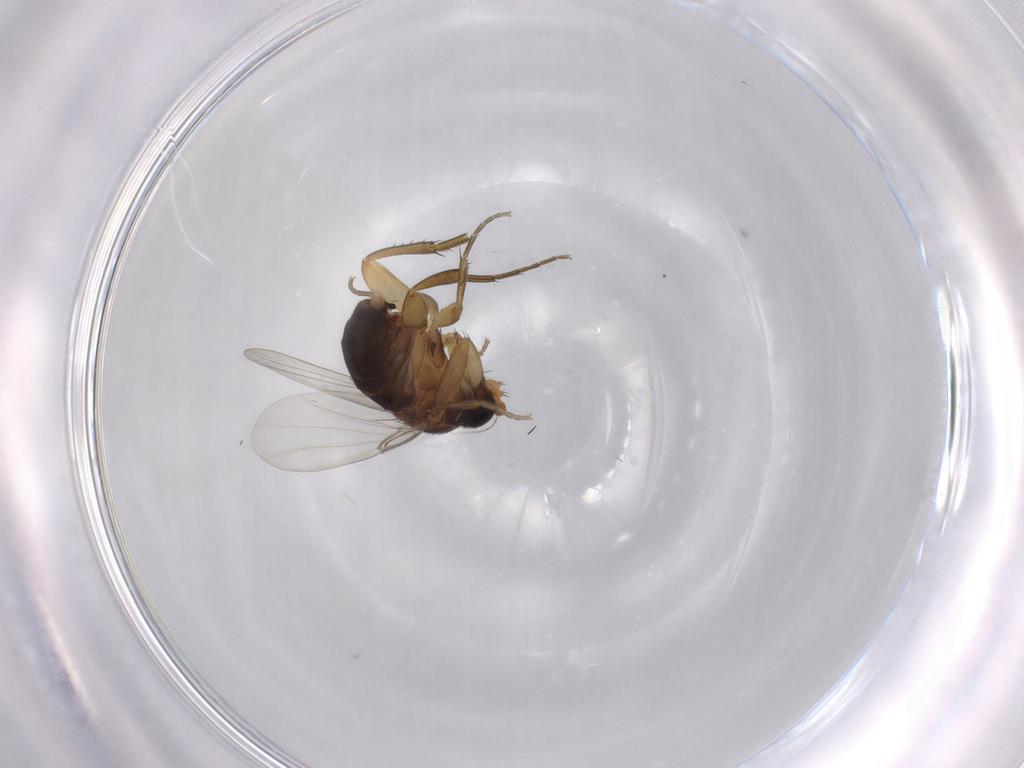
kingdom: Animalia
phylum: Arthropoda
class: Insecta
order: Diptera
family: Phoridae
